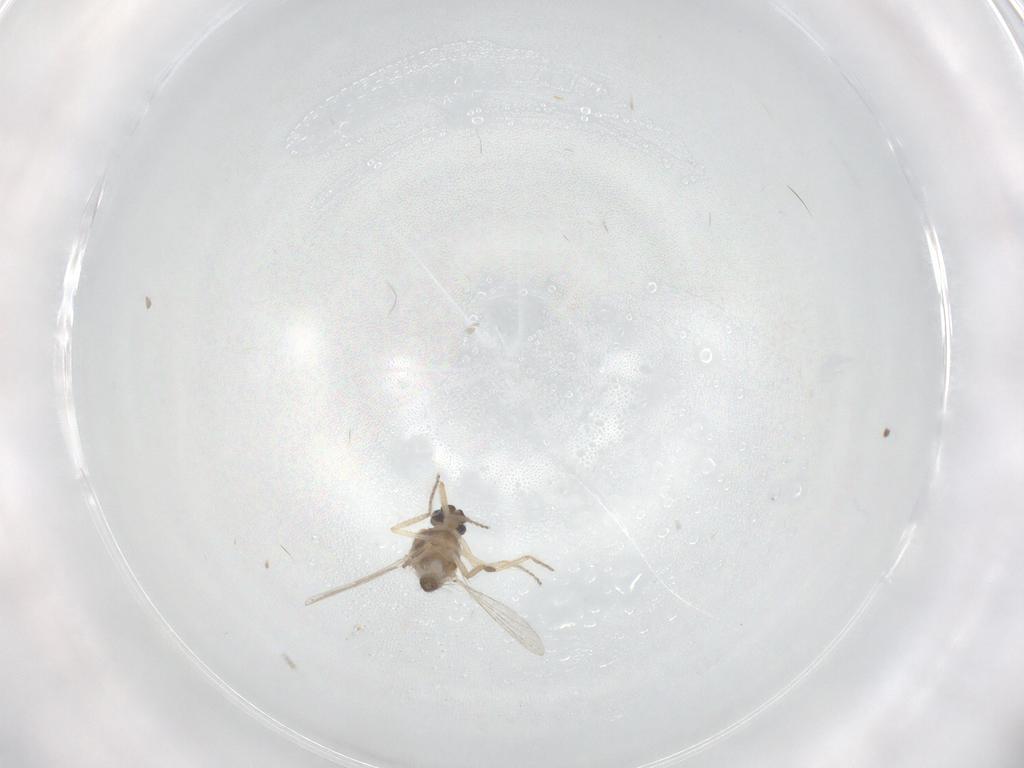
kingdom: Animalia
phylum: Arthropoda
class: Insecta
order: Diptera
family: Ceratopogonidae
